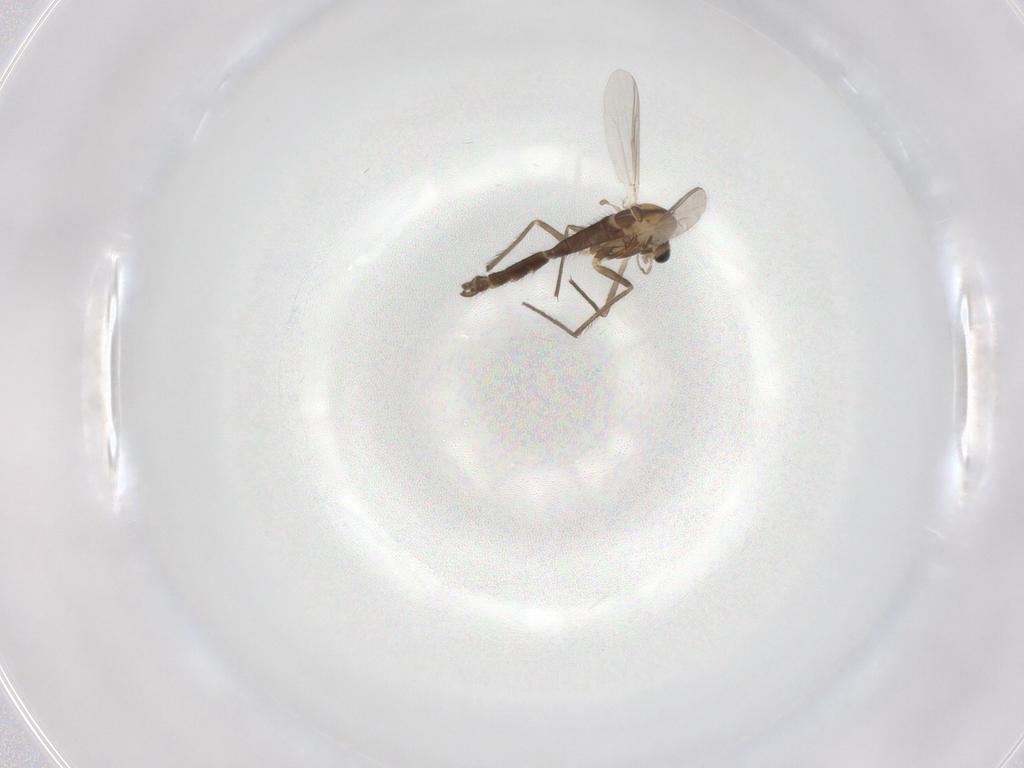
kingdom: Animalia
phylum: Arthropoda
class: Insecta
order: Diptera
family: Chironomidae
